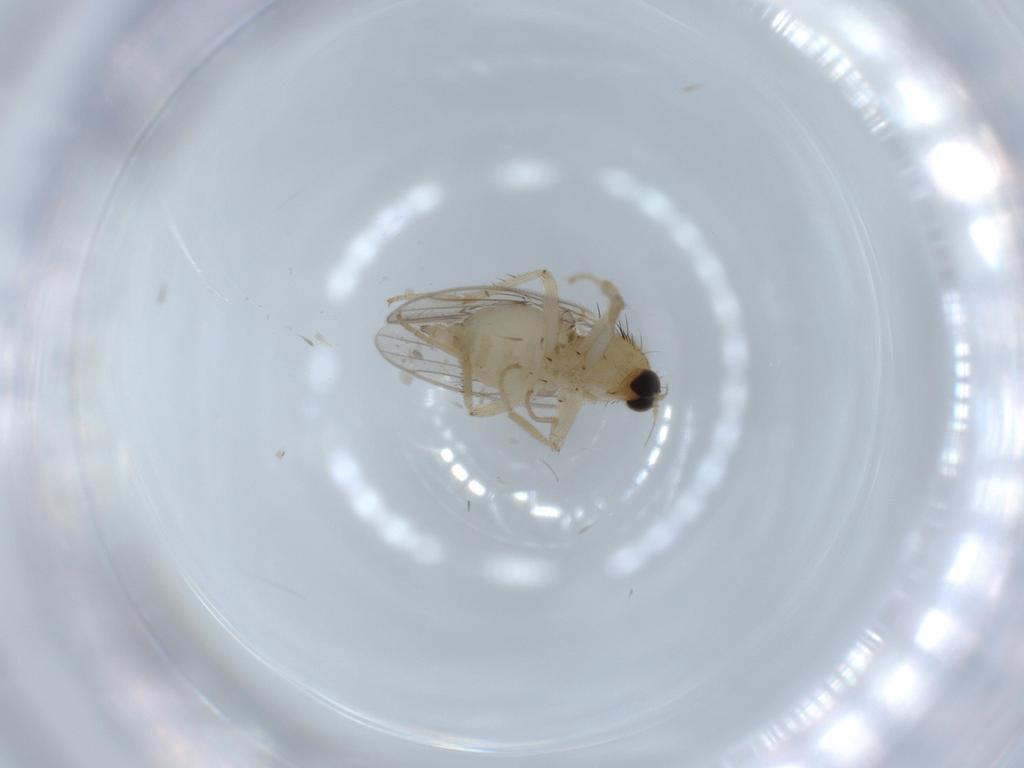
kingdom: Animalia
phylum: Arthropoda
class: Insecta
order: Diptera
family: Hybotidae
